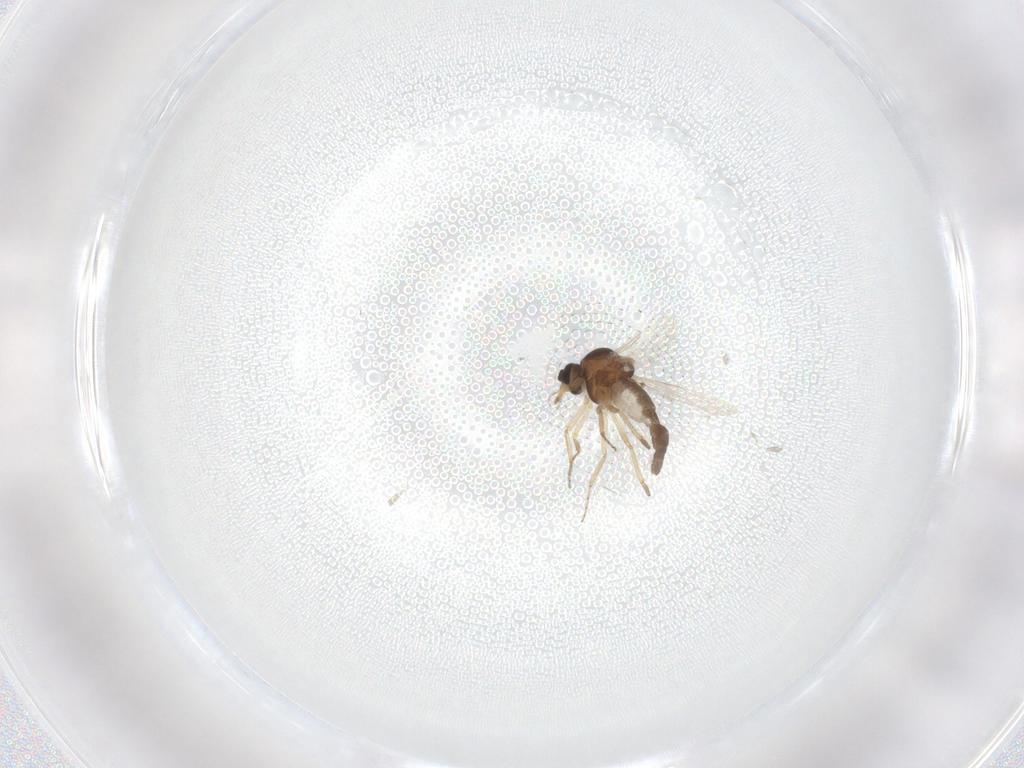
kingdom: Animalia
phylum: Arthropoda
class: Insecta
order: Diptera
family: Ceratopogonidae
